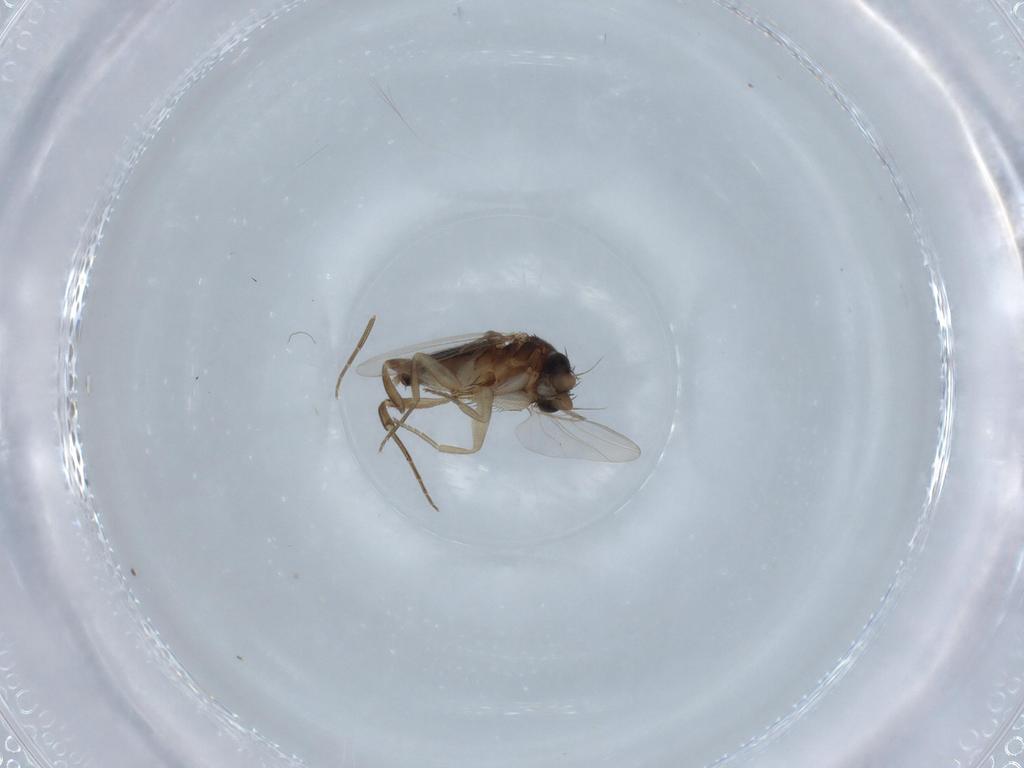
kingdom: Animalia
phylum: Arthropoda
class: Insecta
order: Diptera
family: Phoridae
